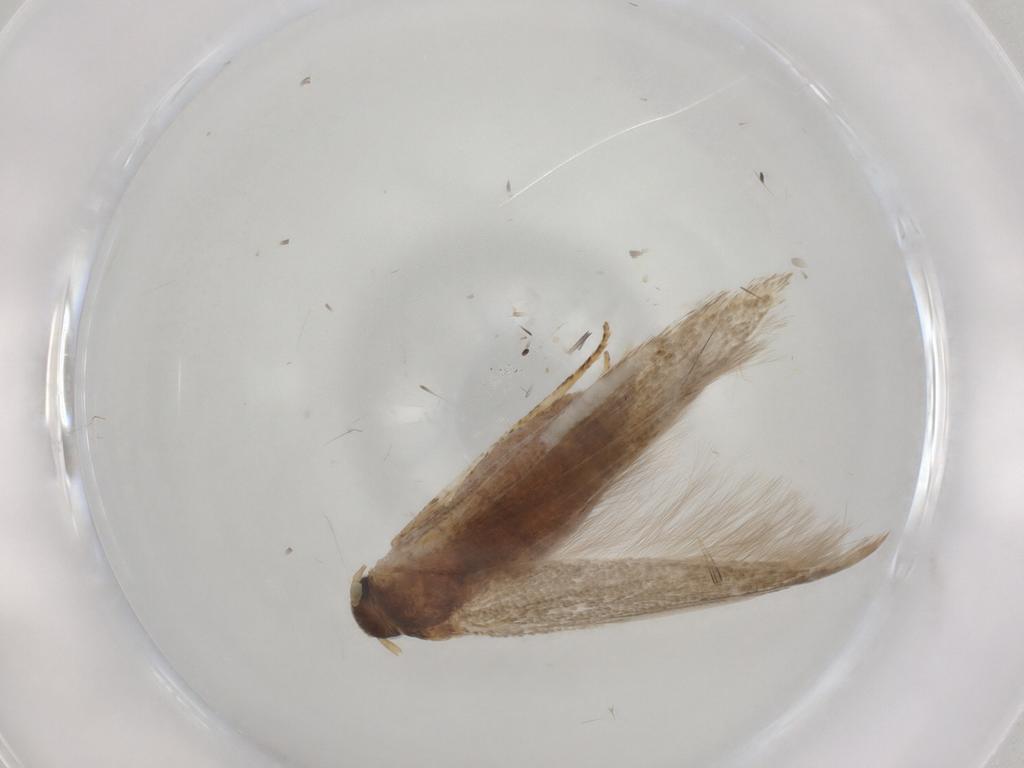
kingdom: Animalia
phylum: Arthropoda
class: Insecta
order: Lepidoptera
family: Blastobasidae
